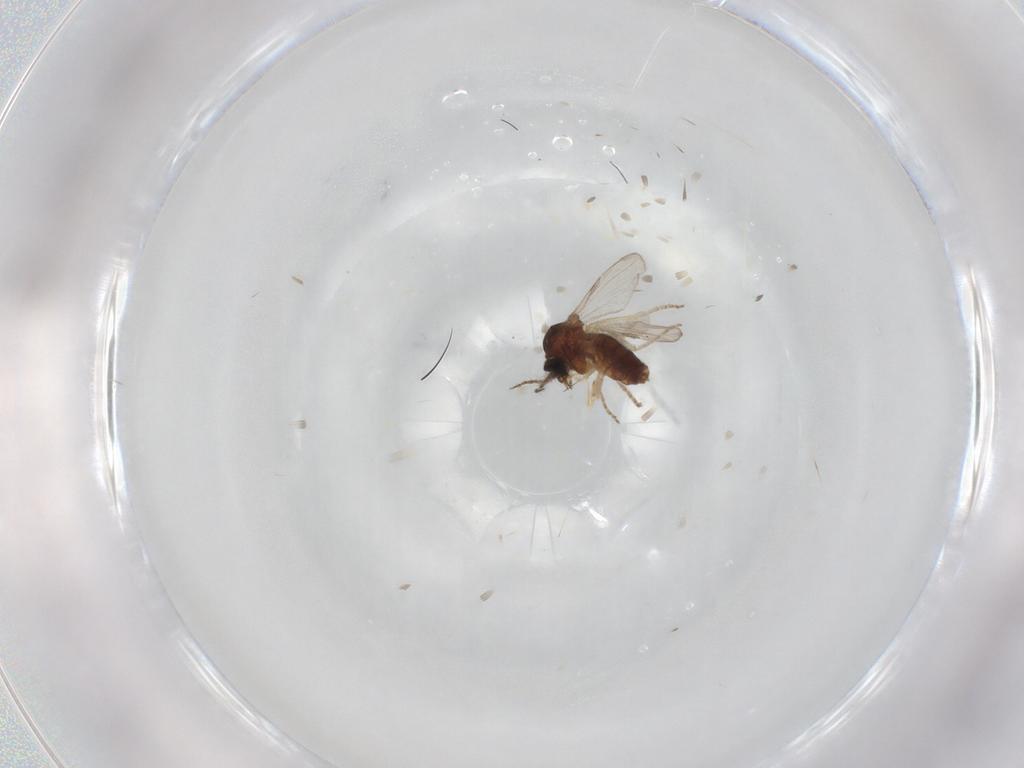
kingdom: Animalia
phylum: Arthropoda
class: Insecta
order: Diptera
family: Ceratopogonidae
